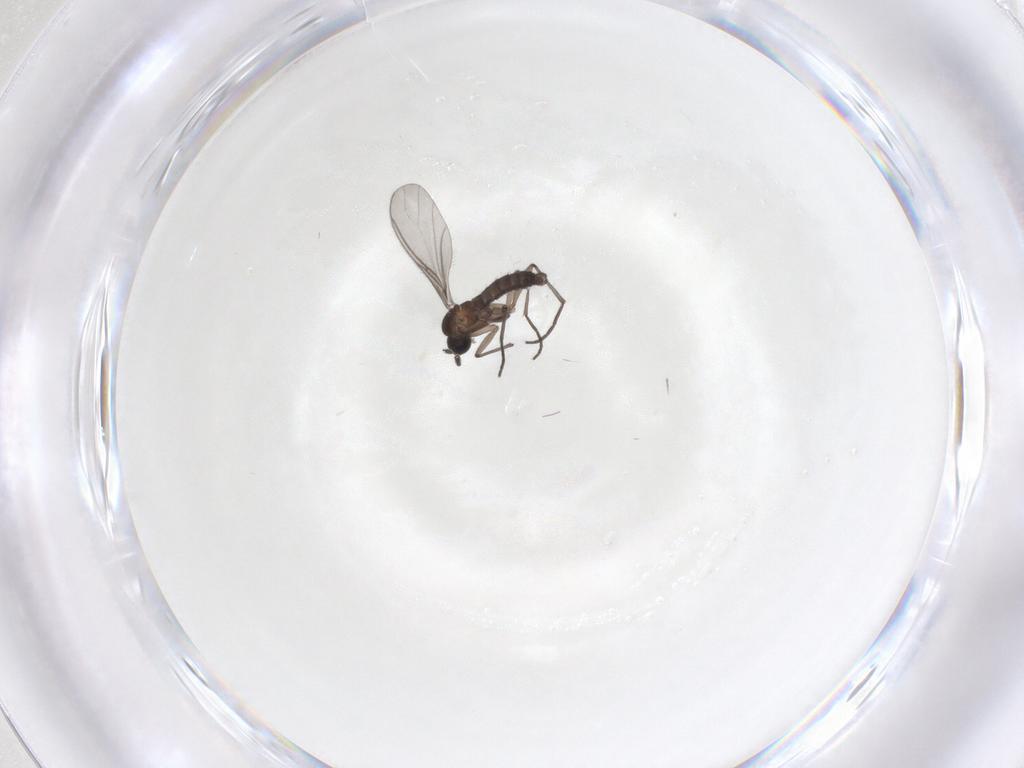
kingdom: Animalia
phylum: Arthropoda
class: Insecta
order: Diptera
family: Sciaridae
